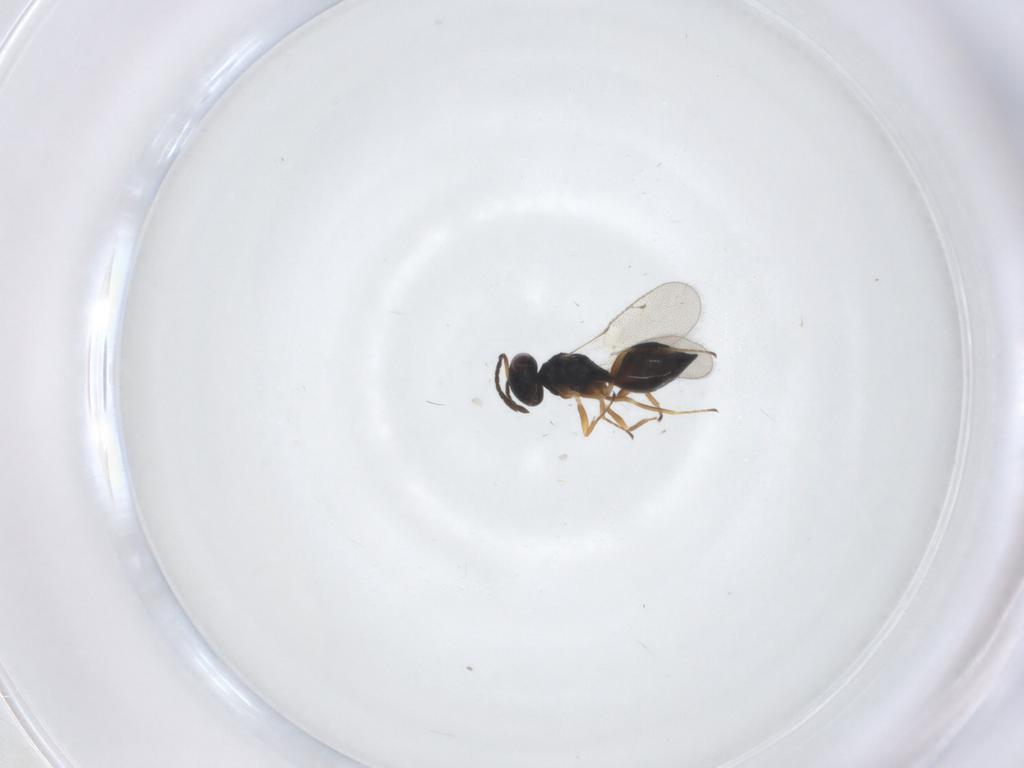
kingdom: Animalia
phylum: Arthropoda
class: Insecta
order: Hymenoptera
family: Pteromalidae
